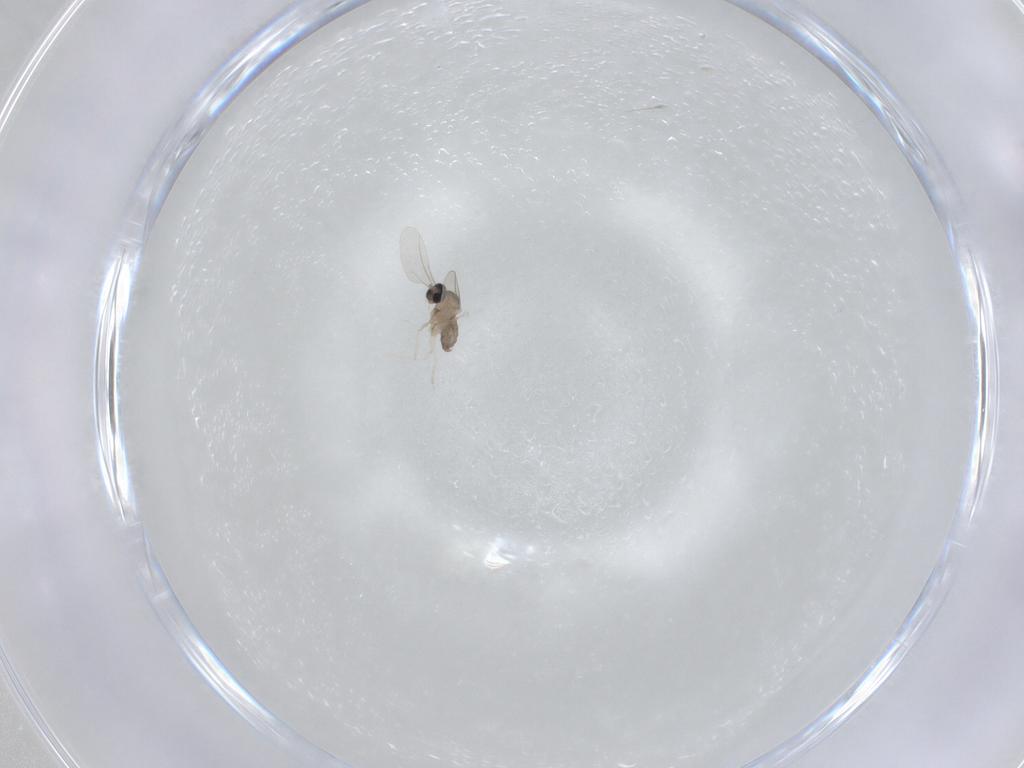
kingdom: Animalia
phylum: Arthropoda
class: Insecta
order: Diptera
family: Cecidomyiidae
